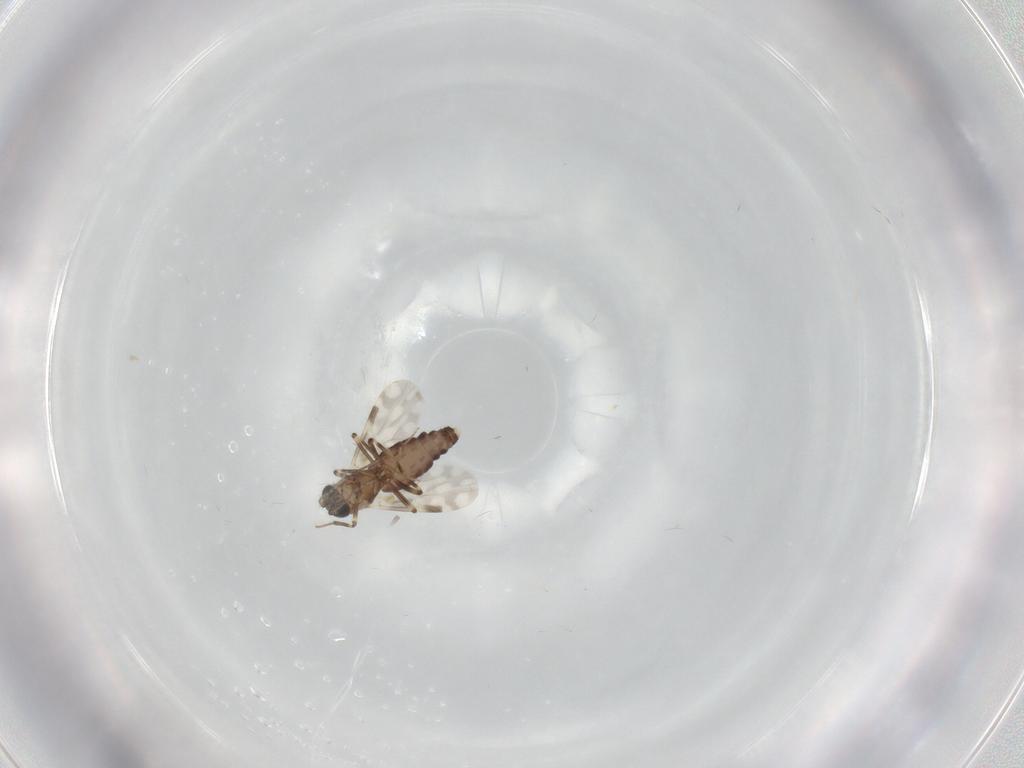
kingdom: Animalia
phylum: Arthropoda
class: Insecta
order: Diptera
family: Ceratopogonidae
